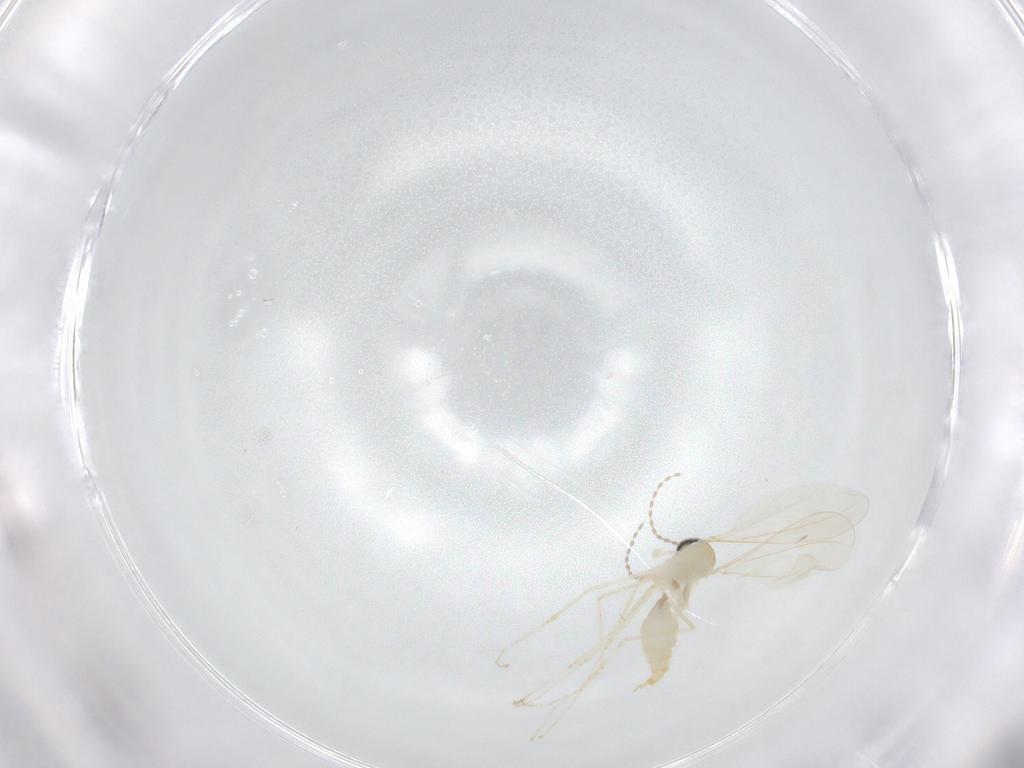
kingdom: Animalia
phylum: Arthropoda
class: Insecta
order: Diptera
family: Cecidomyiidae
